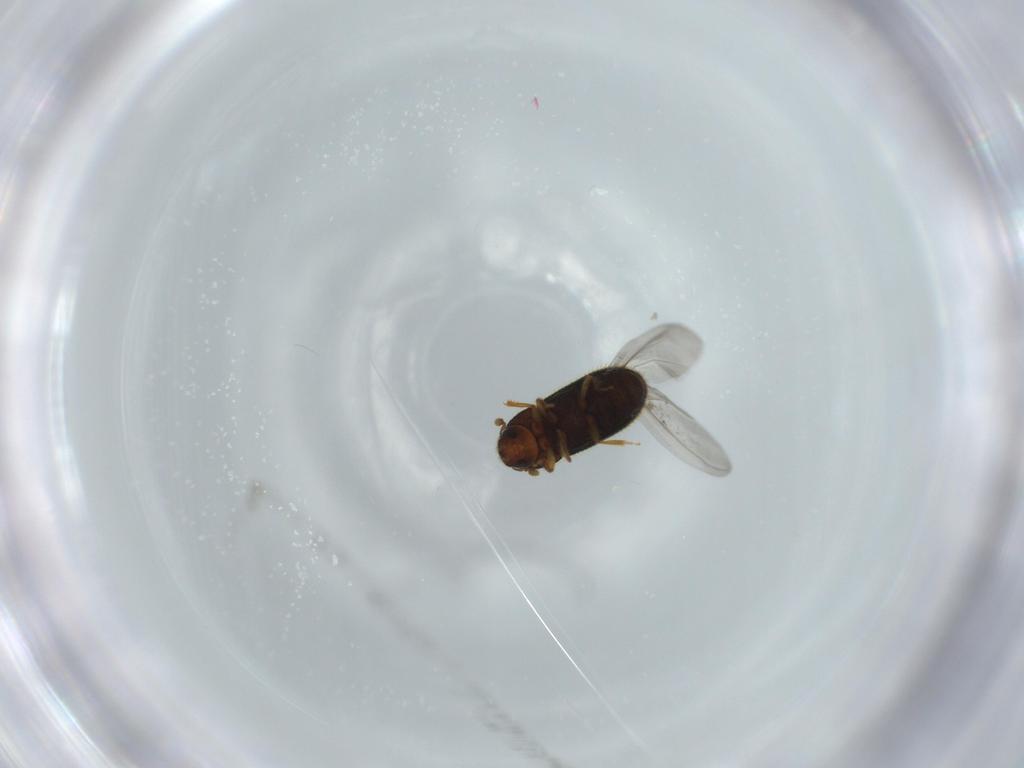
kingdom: Animalia
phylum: Arthropoda
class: Insecta
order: Coleoptera
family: Curculionidae
